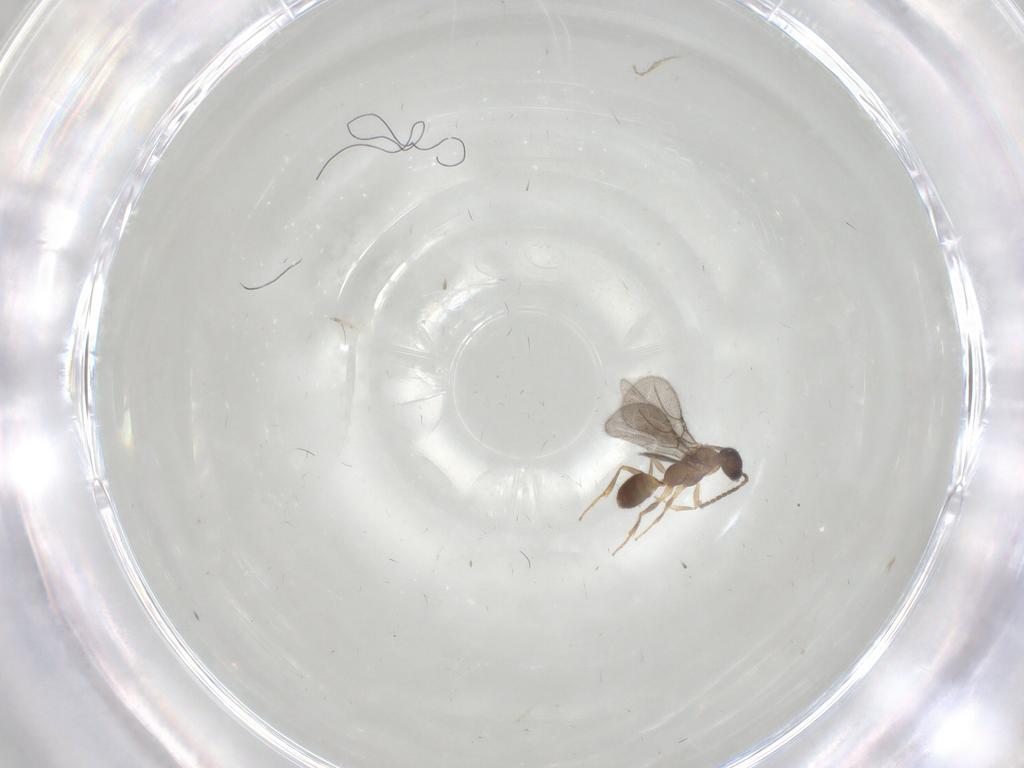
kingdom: Animalia
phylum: Arthropoda
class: Insecta
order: Hymenoptera
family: Bethylidae
